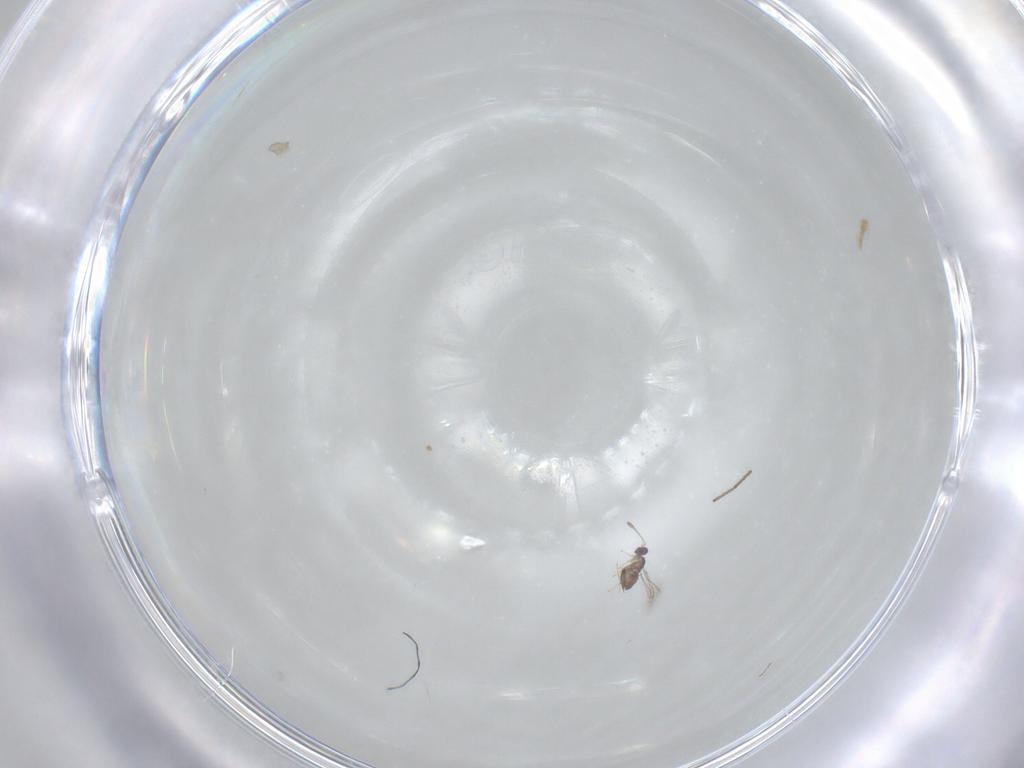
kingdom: Animalia
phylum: Arthropoda
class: Insecta
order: Hymenoptera
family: Mymaridae
